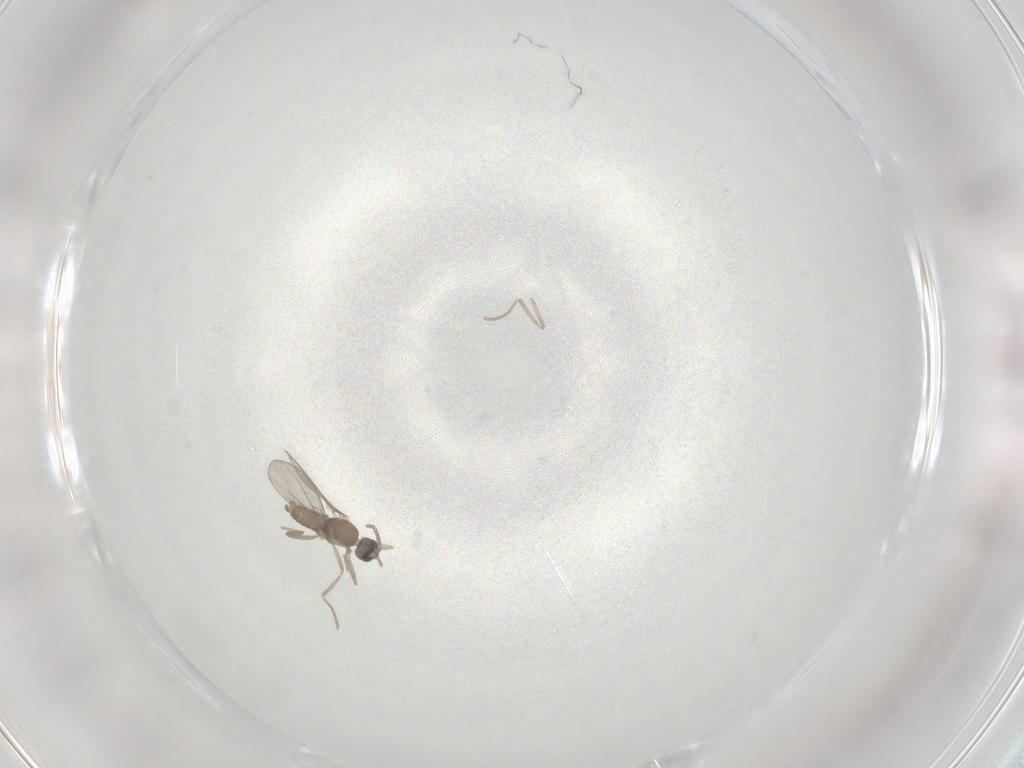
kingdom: Animalia
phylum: Arthropoda
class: Insecta
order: Diptera
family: Cecidomyiidae
